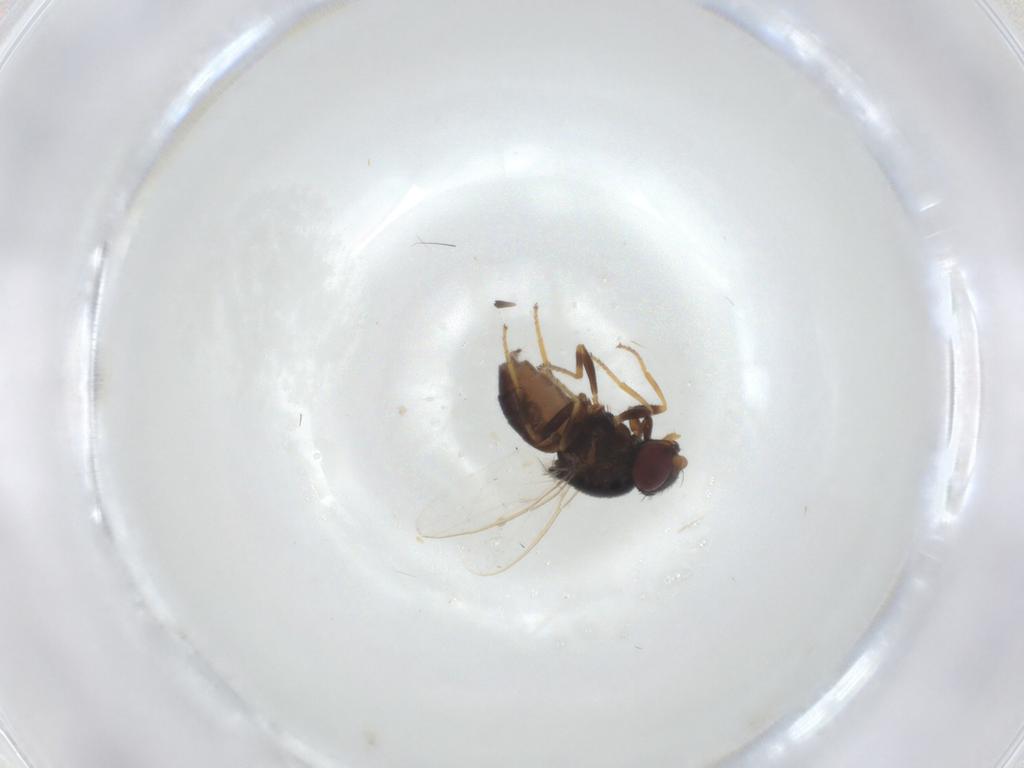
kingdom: Animalia
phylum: Arthropoda
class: Insecta
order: Diptera
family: Chloropidae
